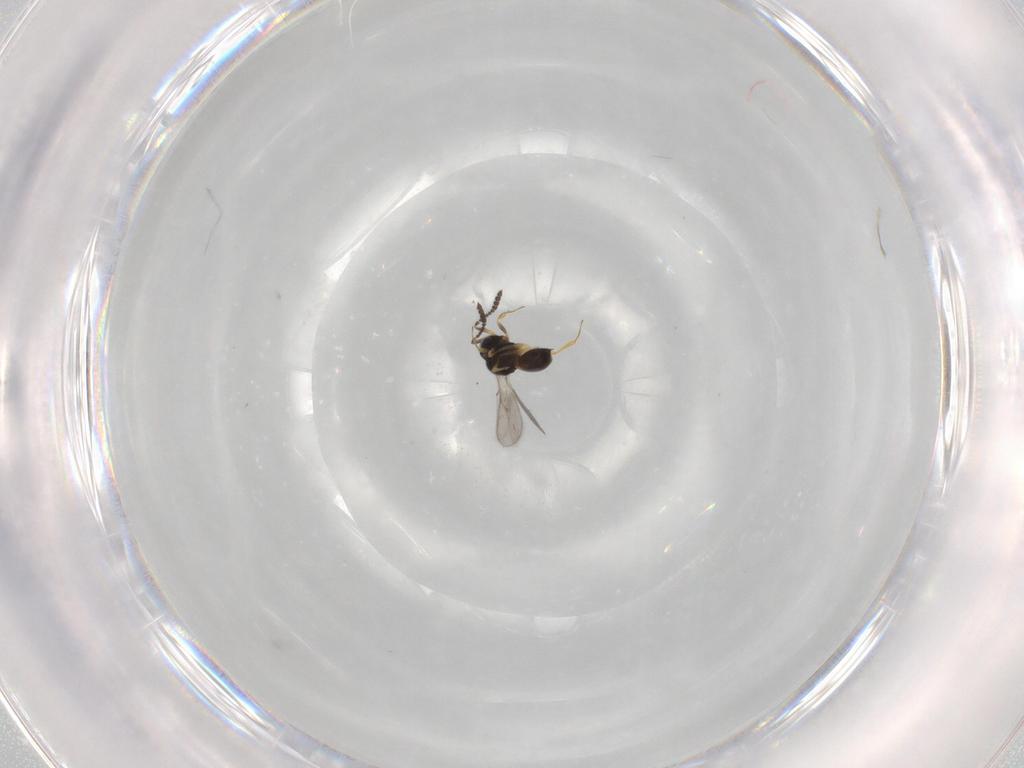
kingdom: Animalia
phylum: Arthropoda
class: Insecta
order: Hymenoptera
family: Scelionidae
